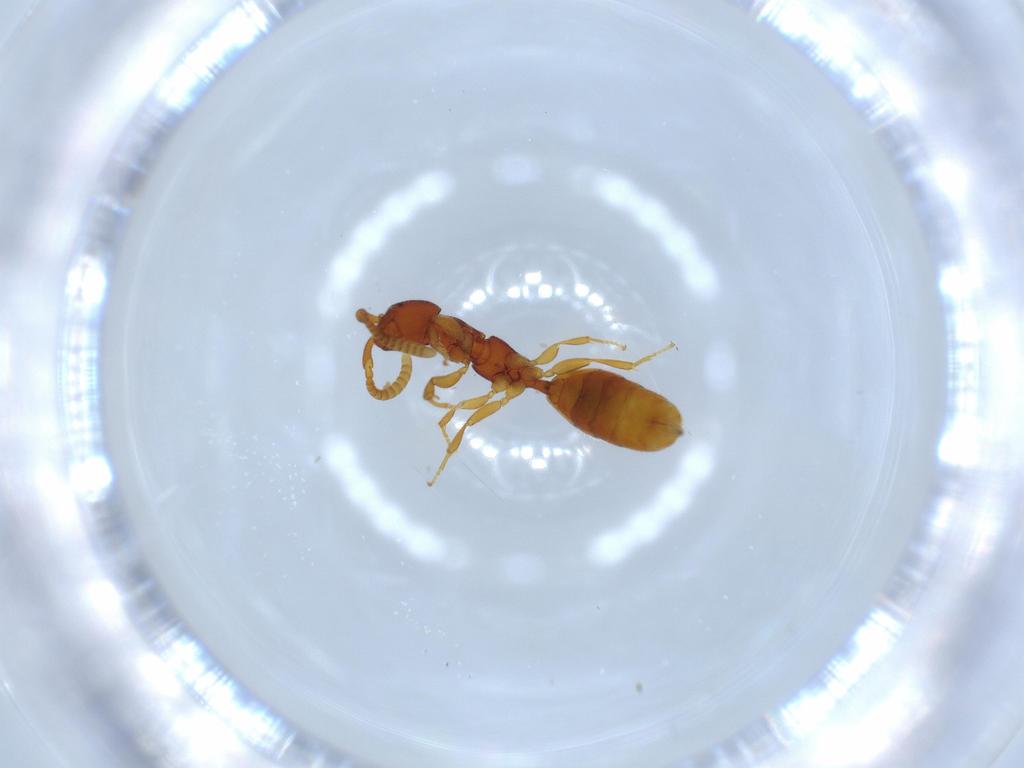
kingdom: Animalia
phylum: Arthropoda
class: Insecta
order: Hymenoptera
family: Bethylidae
